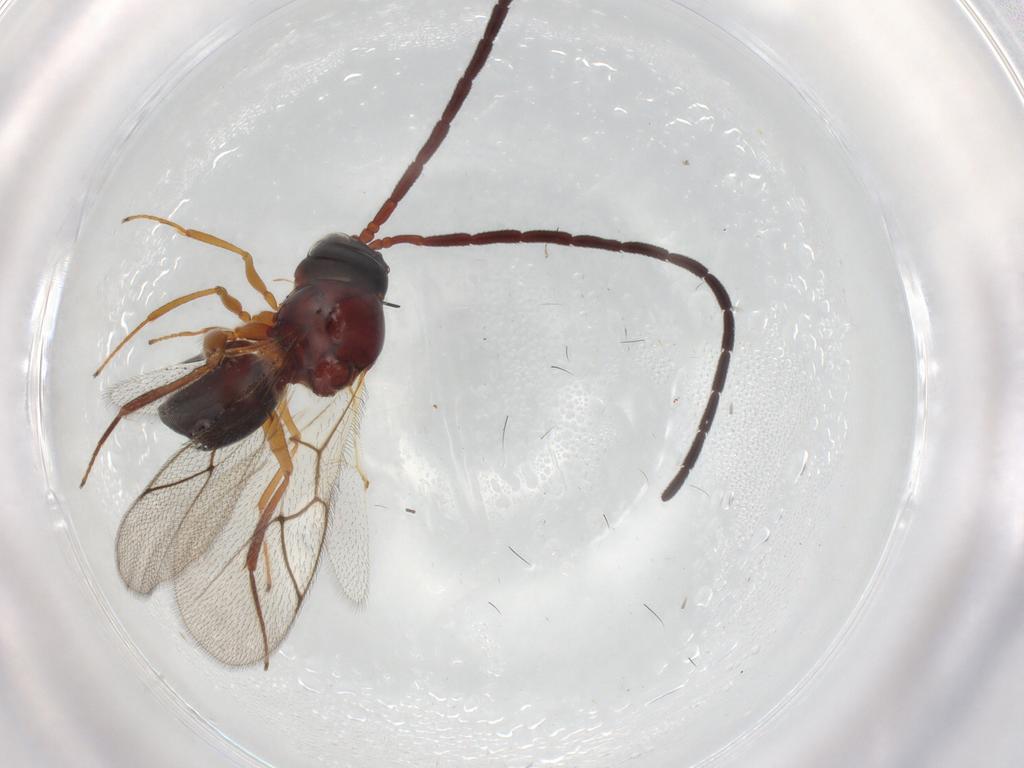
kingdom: Animalia
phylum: Arthropoda
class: Insecta
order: Hymenoptera
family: Figitidae
